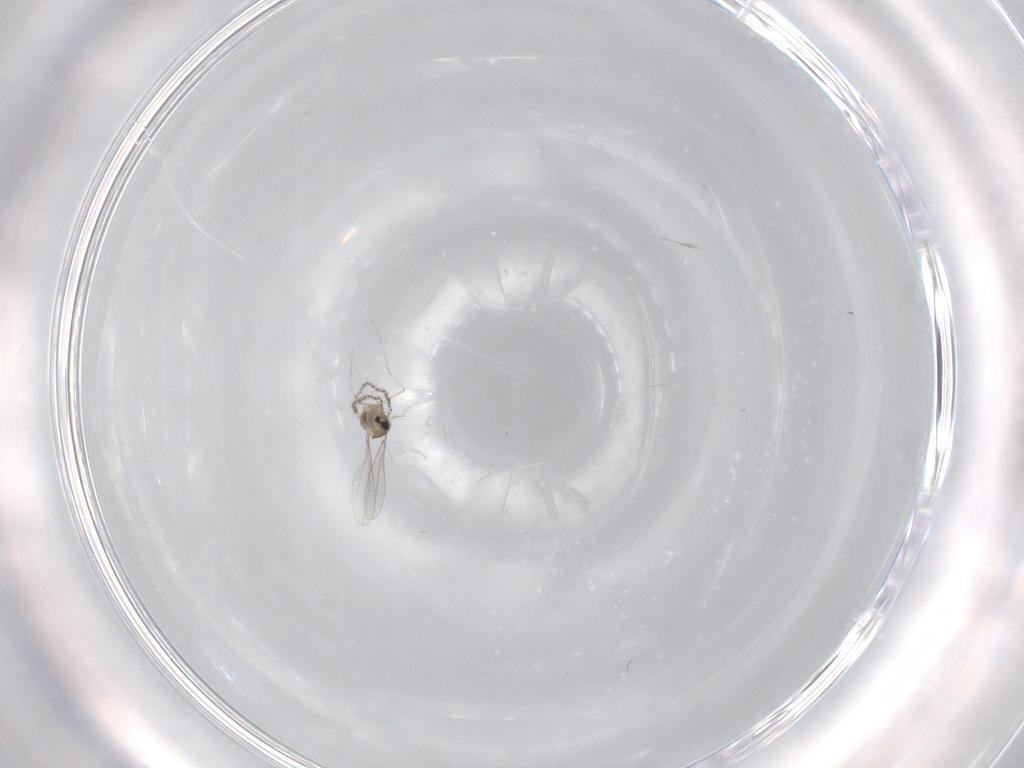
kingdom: Animalia
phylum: Arthropoda
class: Insecta
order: Diptera
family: Cecidomyiidae
